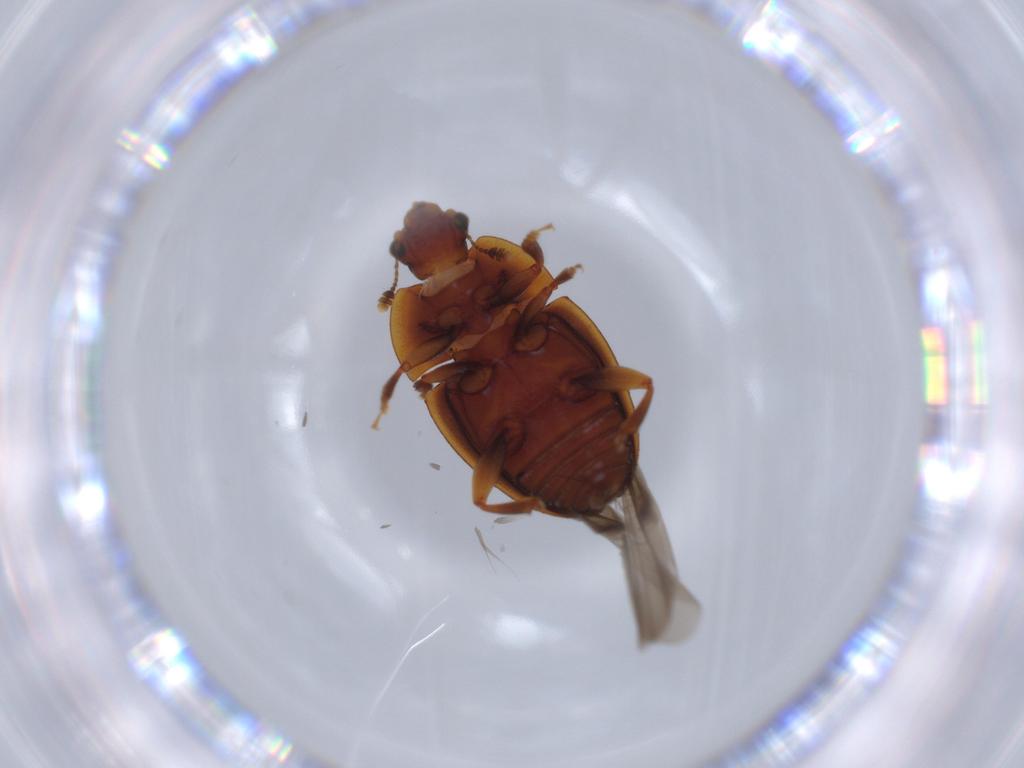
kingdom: Animalia
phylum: Arthropoda
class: Insecta
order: Coleoptera
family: Nitidulidae
